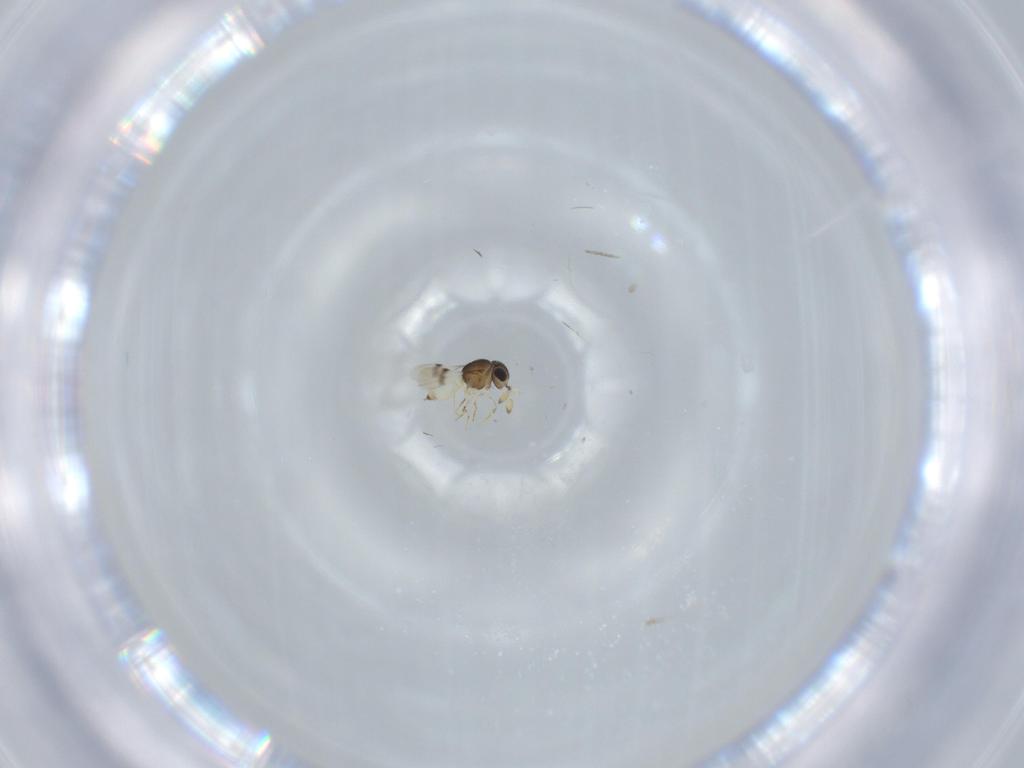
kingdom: Animalia
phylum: Arthropoda
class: Insecta
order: Hymenoptera
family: Scelionidae
